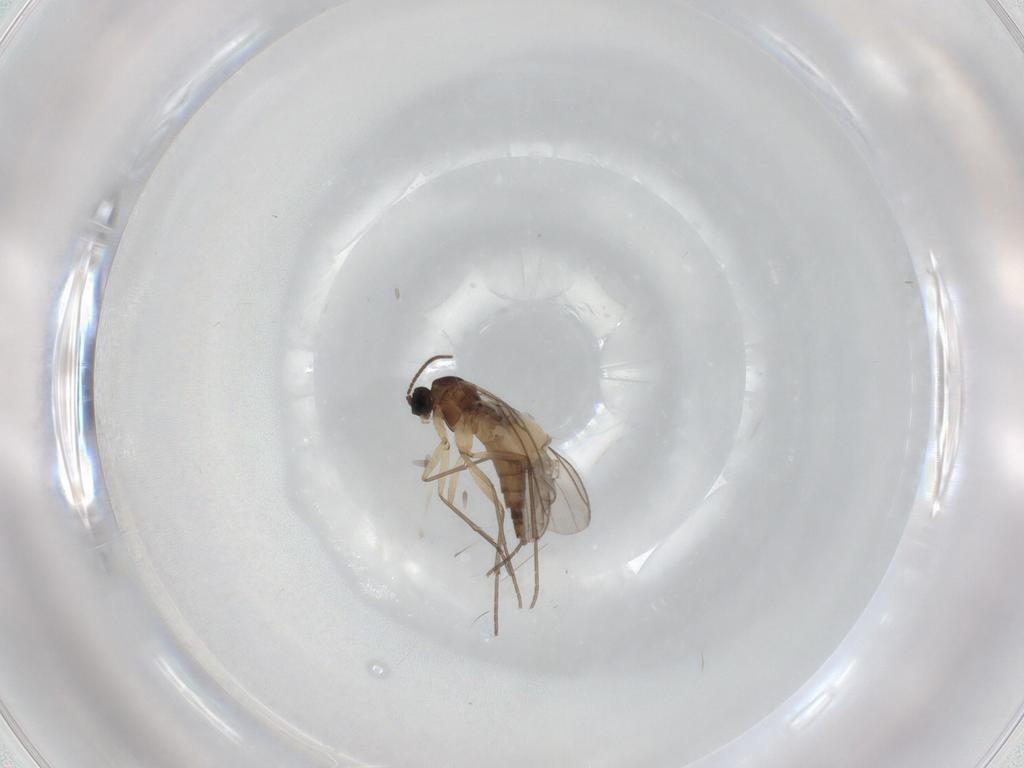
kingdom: Animalia
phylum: Arthropoda
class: Insecta
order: Diptera
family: Sciaridae
